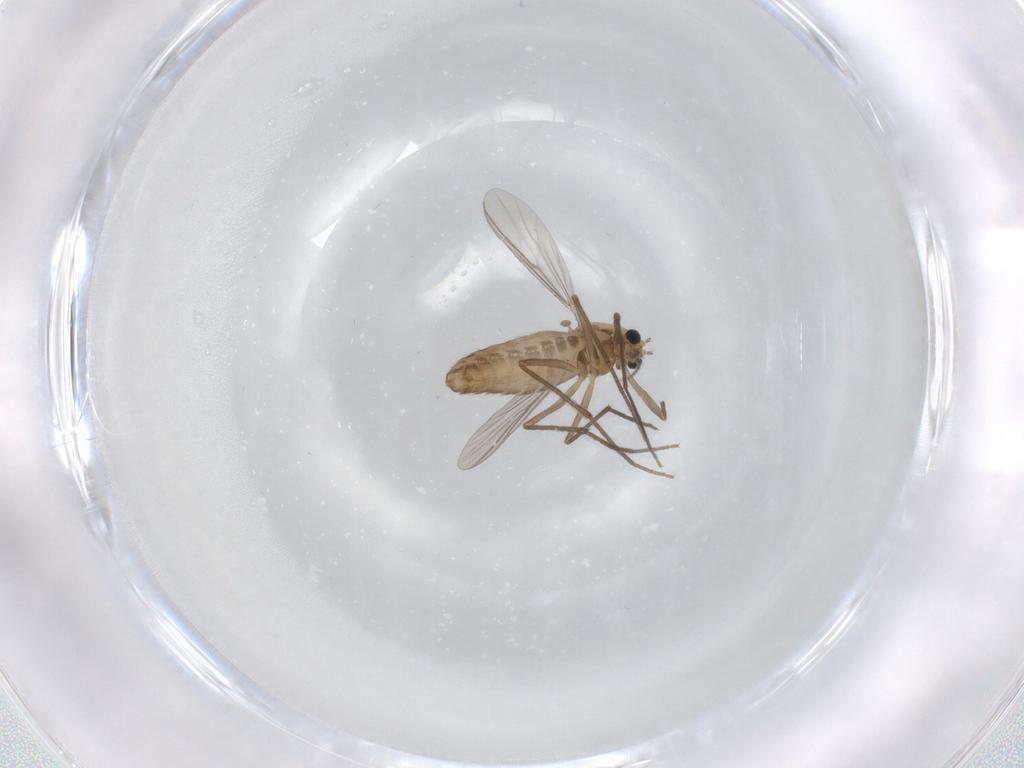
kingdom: Animalia
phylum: Arthropoda
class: Insecta
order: Diptera
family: Chironomidae
